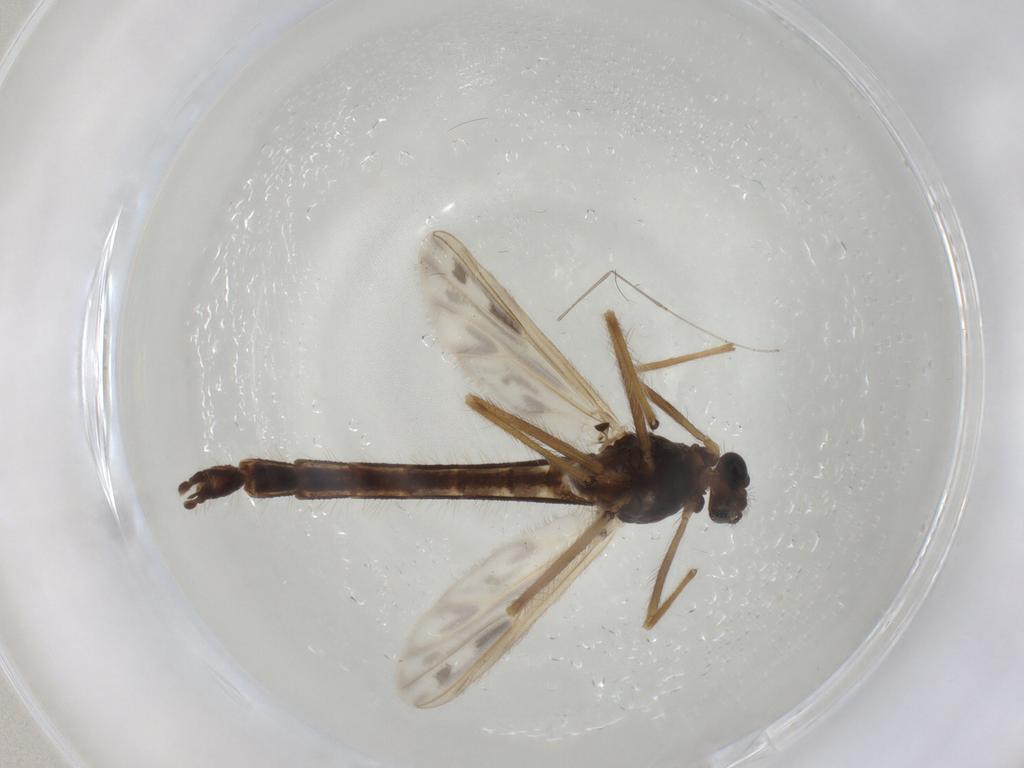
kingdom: Animalia
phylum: Arthropoda
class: Insecta
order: Diptera
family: Chironomidae
